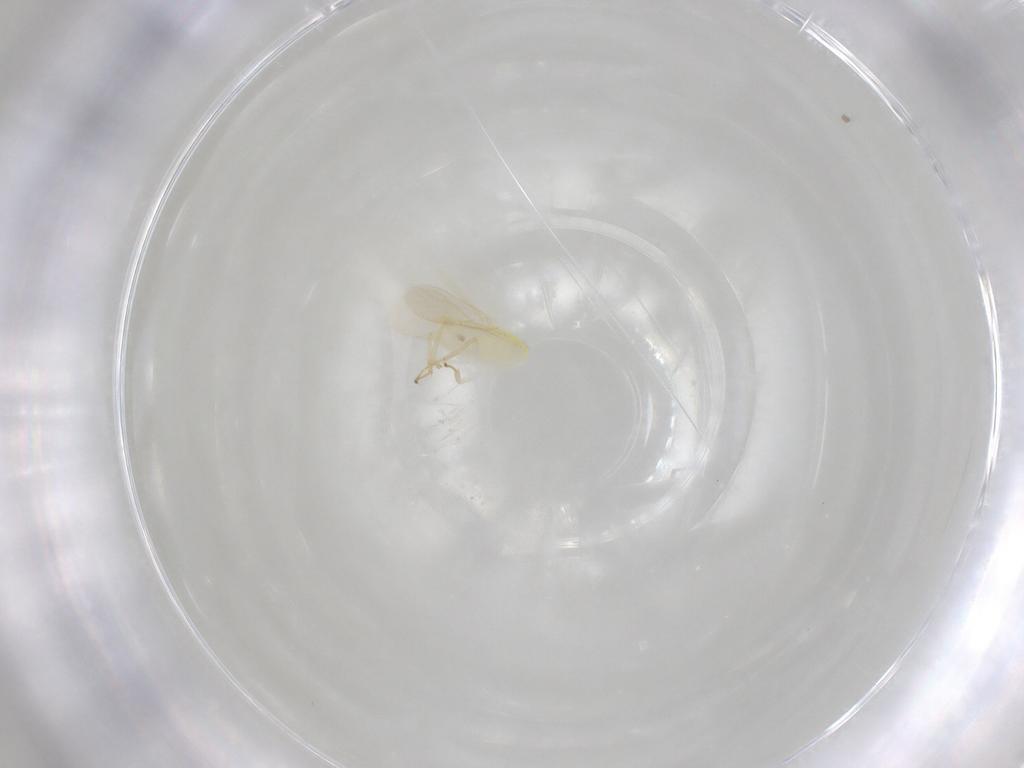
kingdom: Animalia
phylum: Arthropoda
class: Insecta
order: Hymenoptera
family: Aphelinidae
